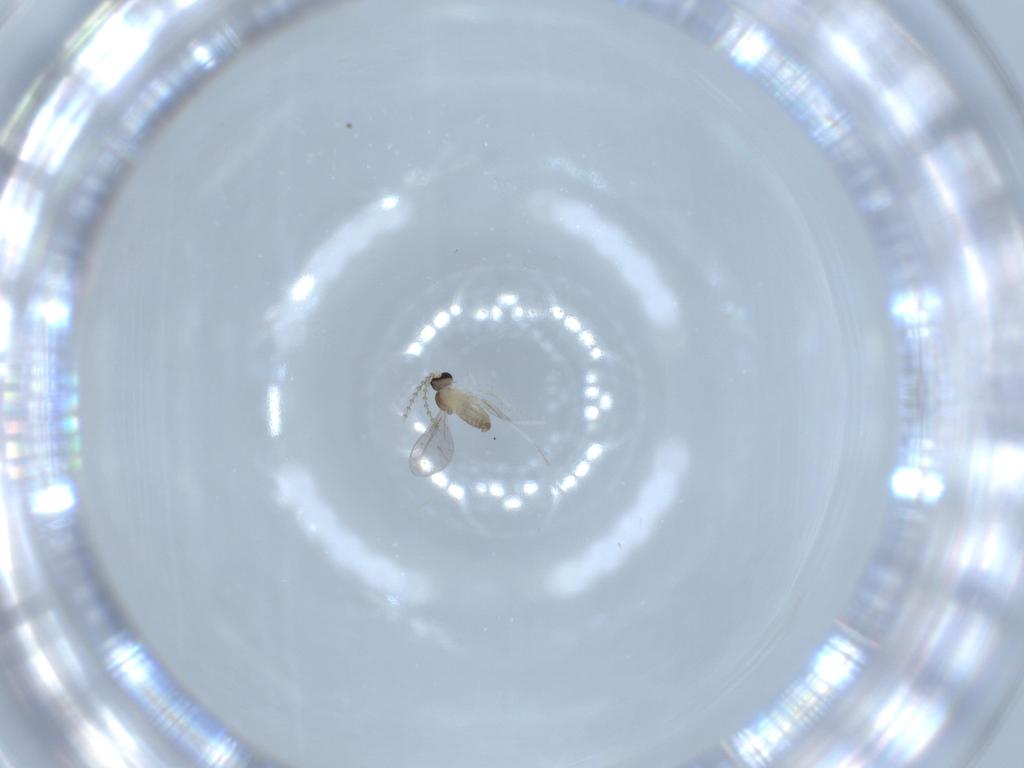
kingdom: Animalia
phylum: Arthropoda
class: Insecta
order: Diptera
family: Cecidomyiidae
